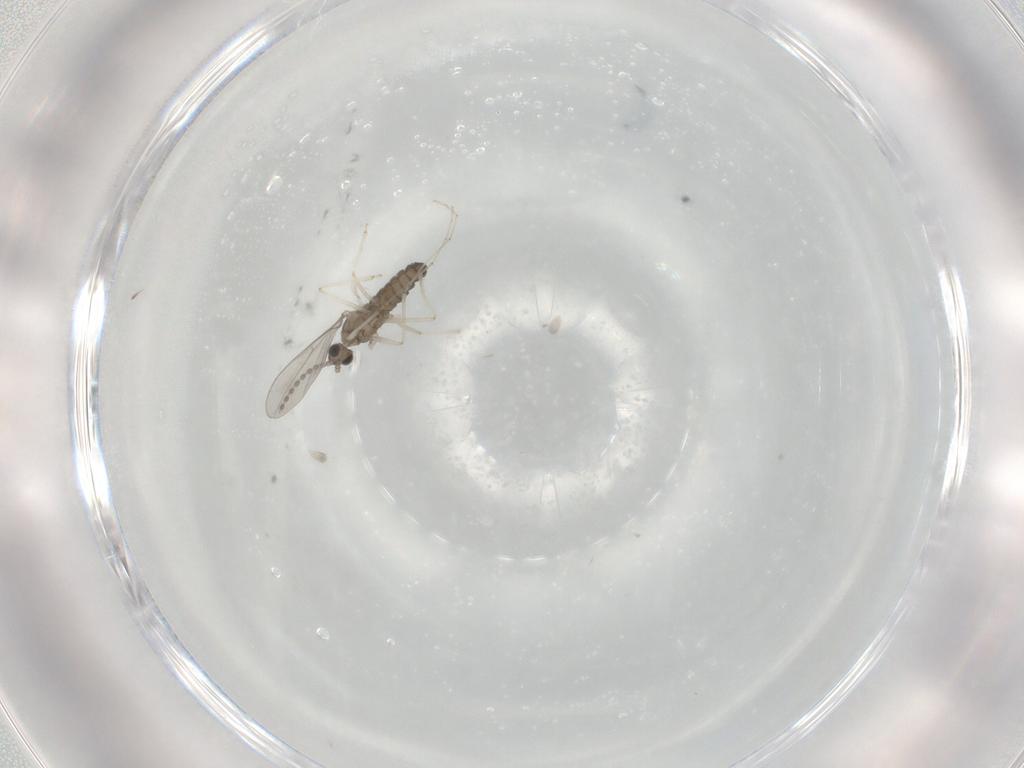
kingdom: Animalia
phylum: Arthropoda
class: Insecta
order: Diptera
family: Cecidomyiidae
